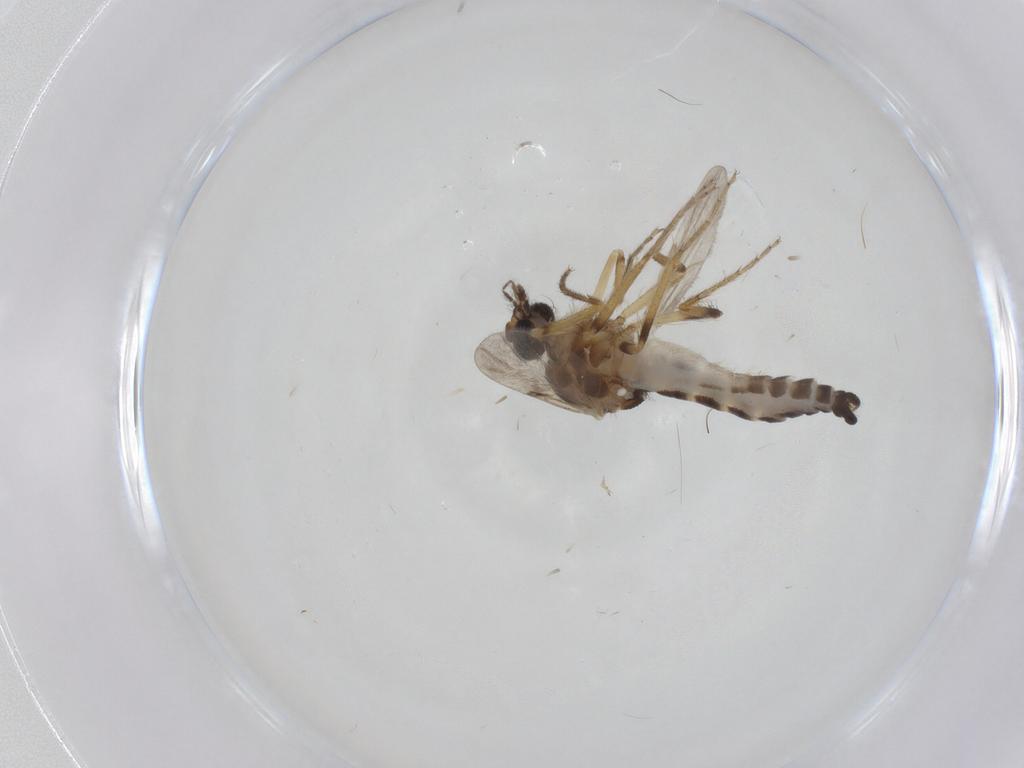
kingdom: Animalia
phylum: Arthropoda
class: Insecta
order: Diptera
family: Ceratopogonidae
